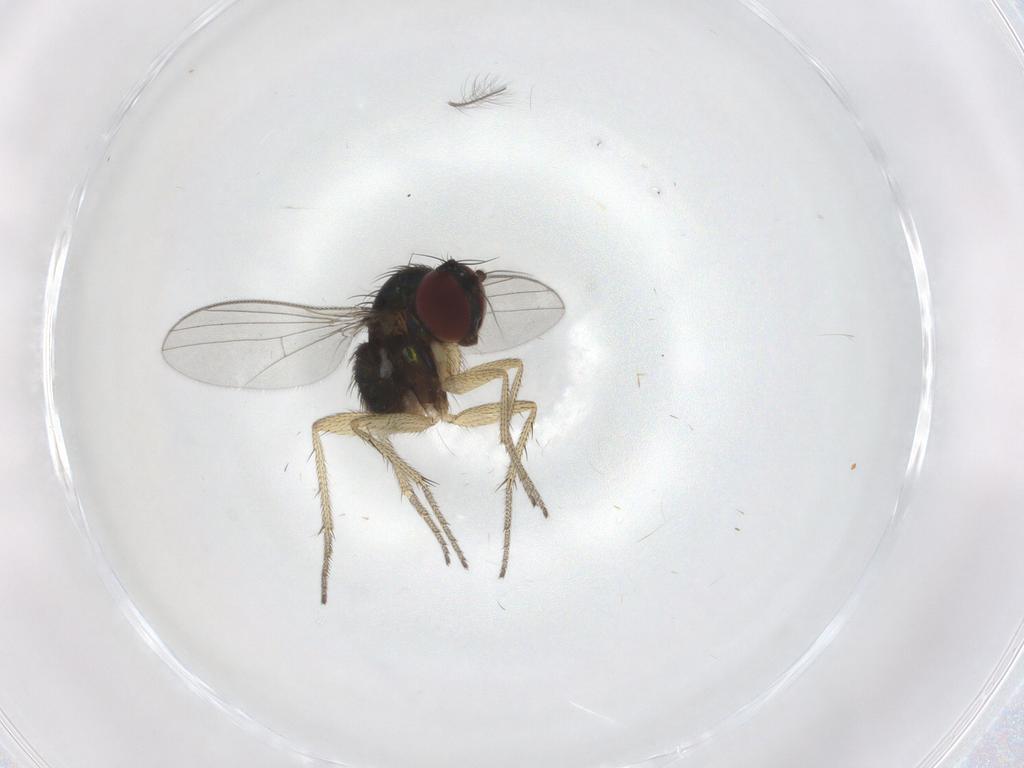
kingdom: Animalia
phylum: Arthropoda
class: Insecta
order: Diptera
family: Dolichopodidae
